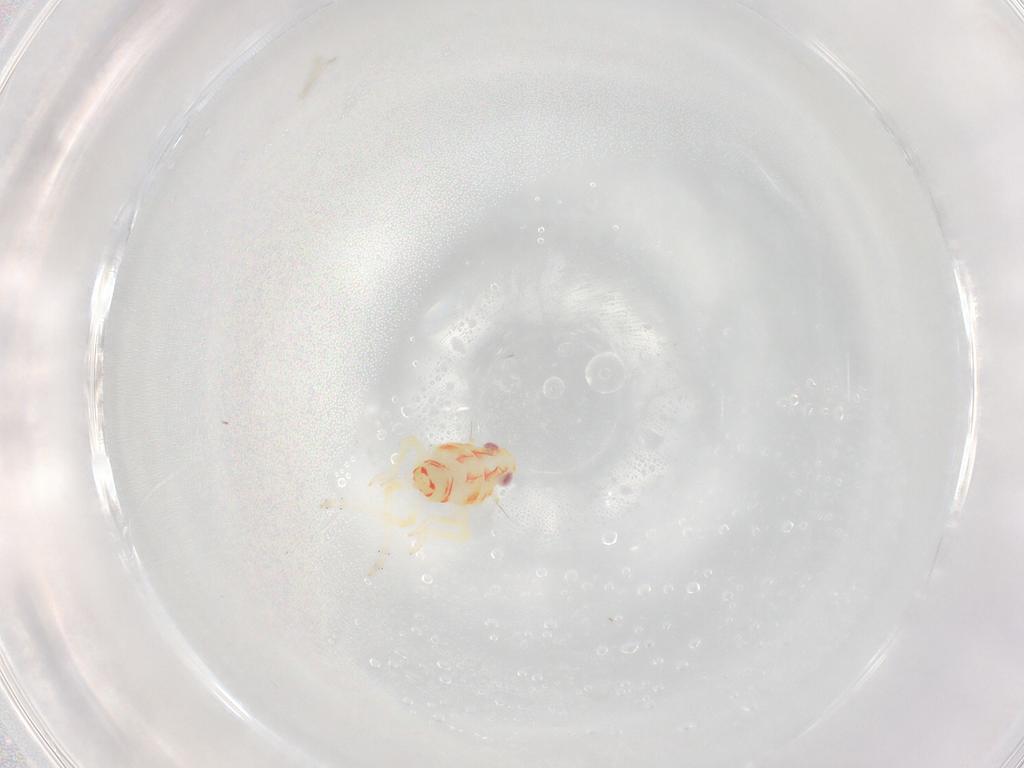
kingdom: Animalia
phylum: Arthropoda
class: Insecta
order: Hemiptera
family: Tropiduchidae
